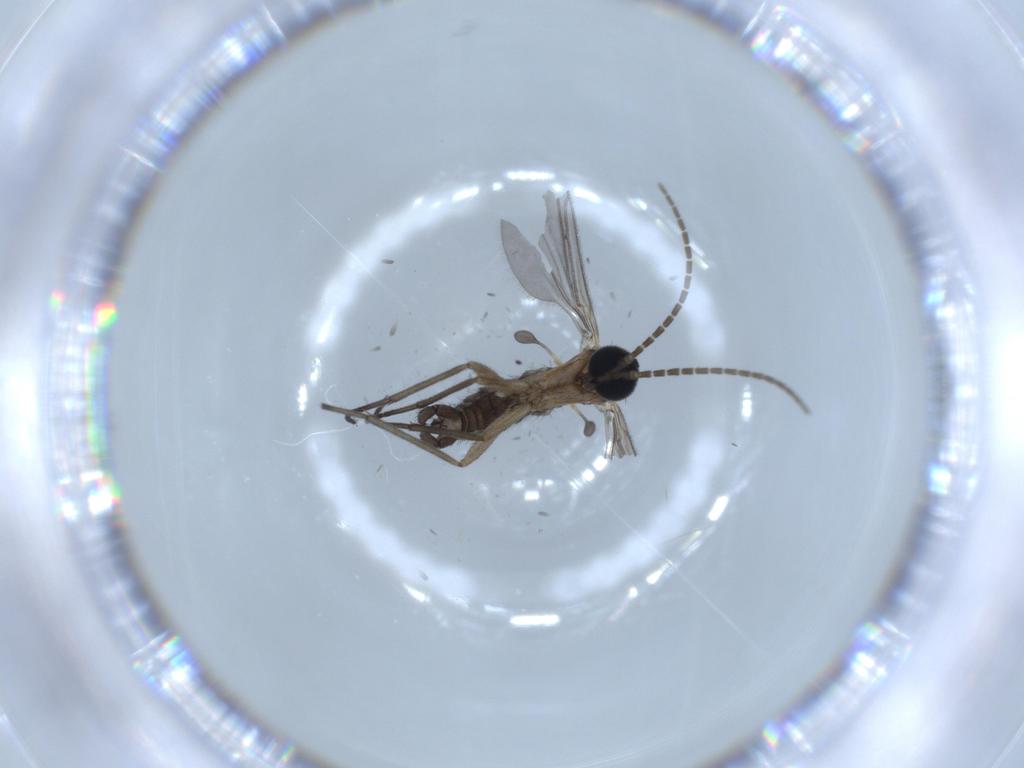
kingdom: Animalia
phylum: Arthropoda
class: Insecta
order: Diptera
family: Sciaridae
